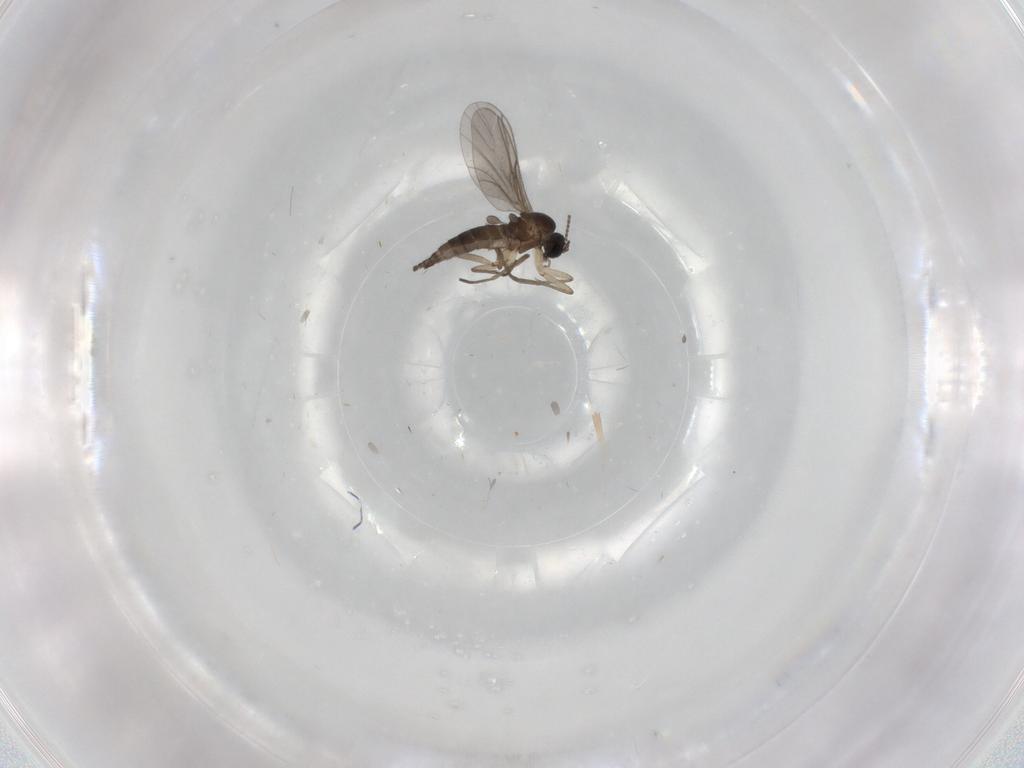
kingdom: Animalia
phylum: Arthropoda
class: Insecta
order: Diptera
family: Sciaridae
